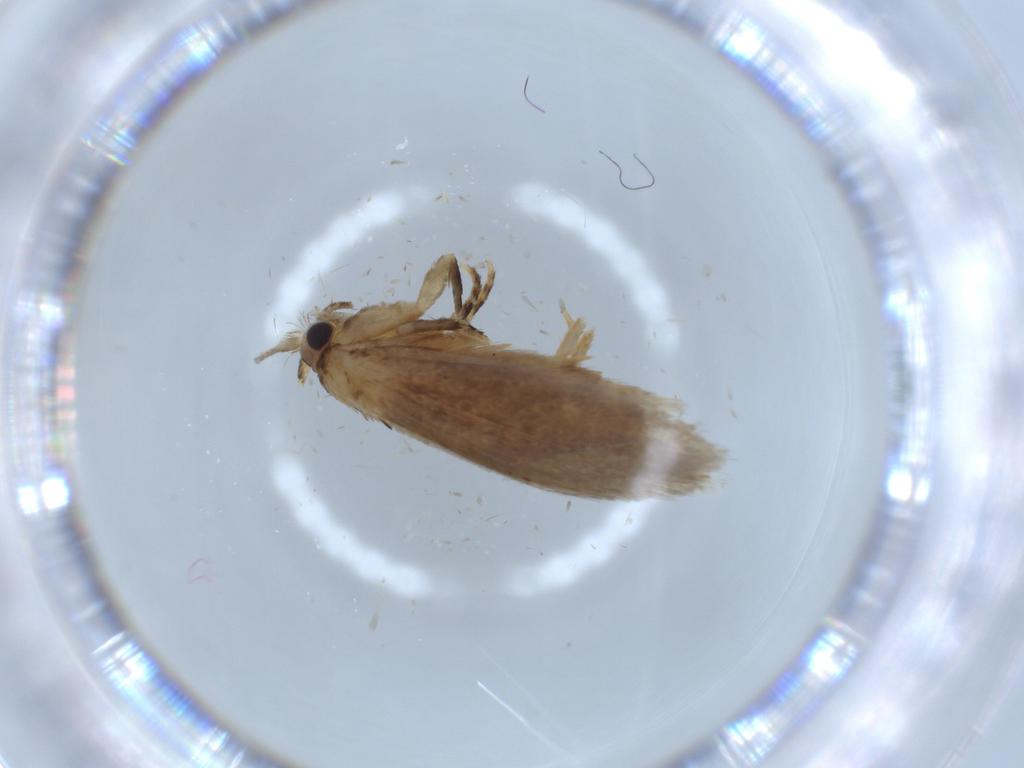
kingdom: Animalia
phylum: Arthropoda
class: Insecta
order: Lepidoptera
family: Tineidae
